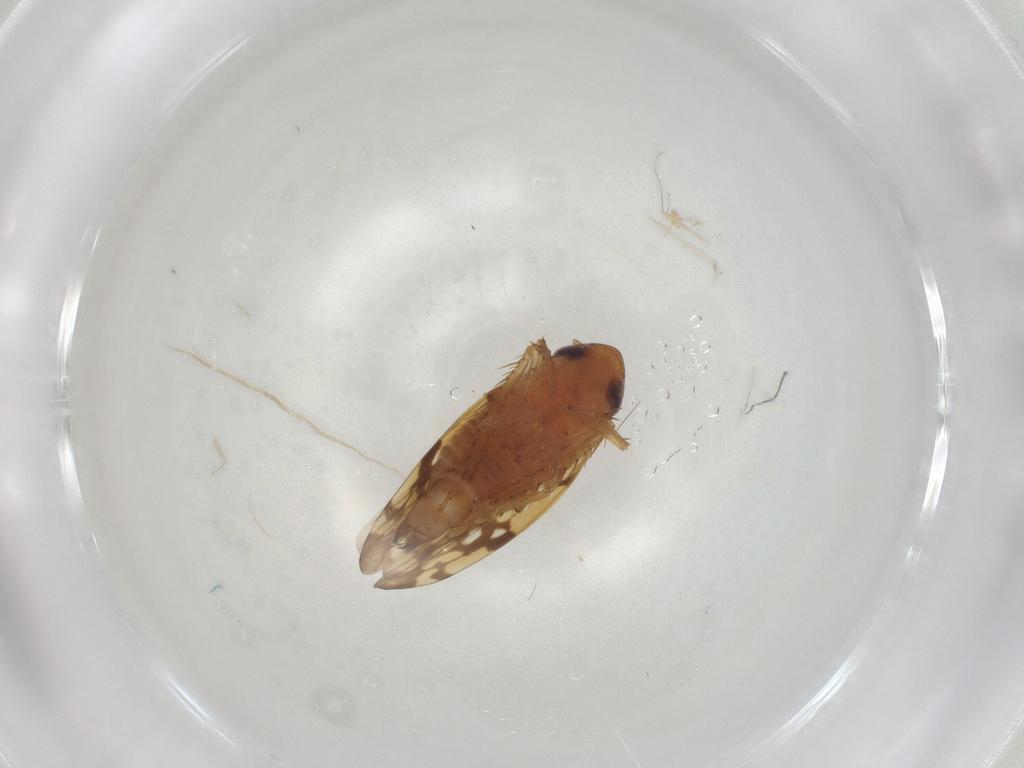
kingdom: Animalia
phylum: Arthropoda
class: Insecta
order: Hemiptera
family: Cicadellidae
